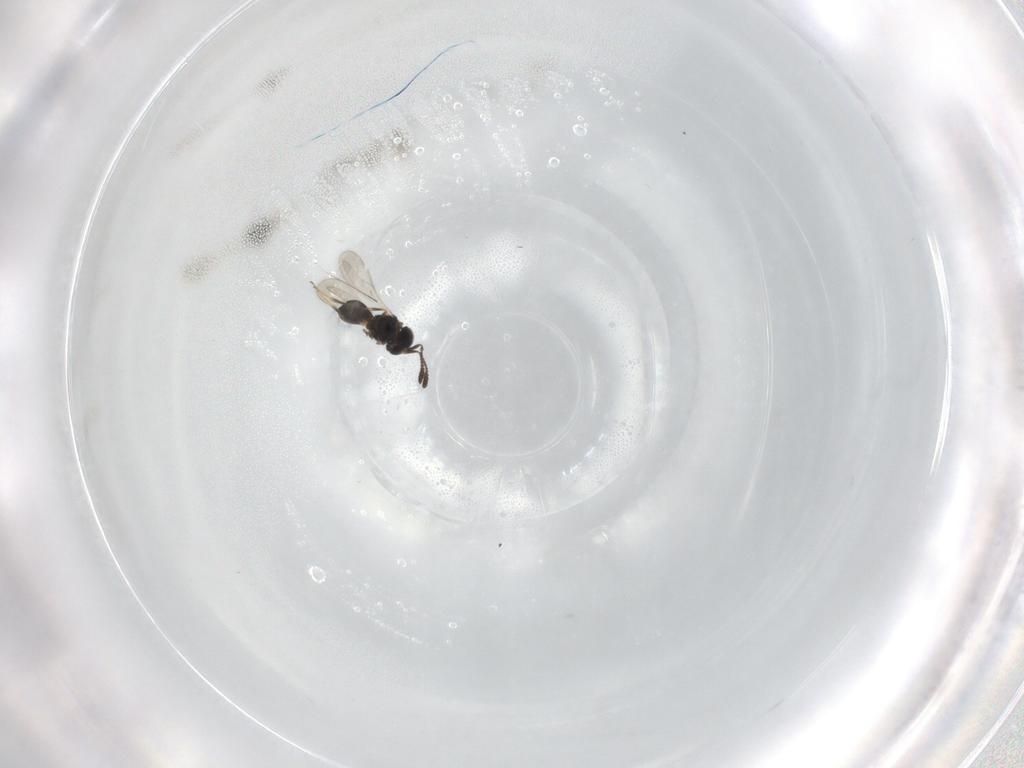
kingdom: Animalia
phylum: Arthropoda
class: Insecta
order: Hymenoptera
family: Scelionidae
